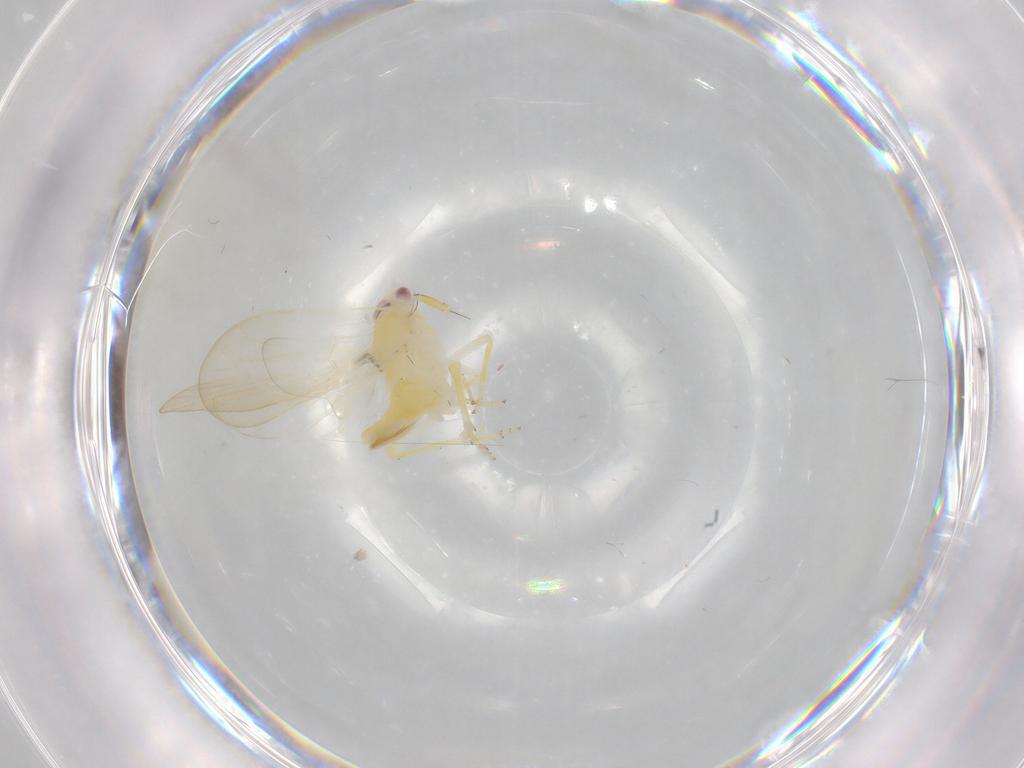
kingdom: Animalia
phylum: Arthropoda
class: Insecta
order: Hemiptera
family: Delphacidae
